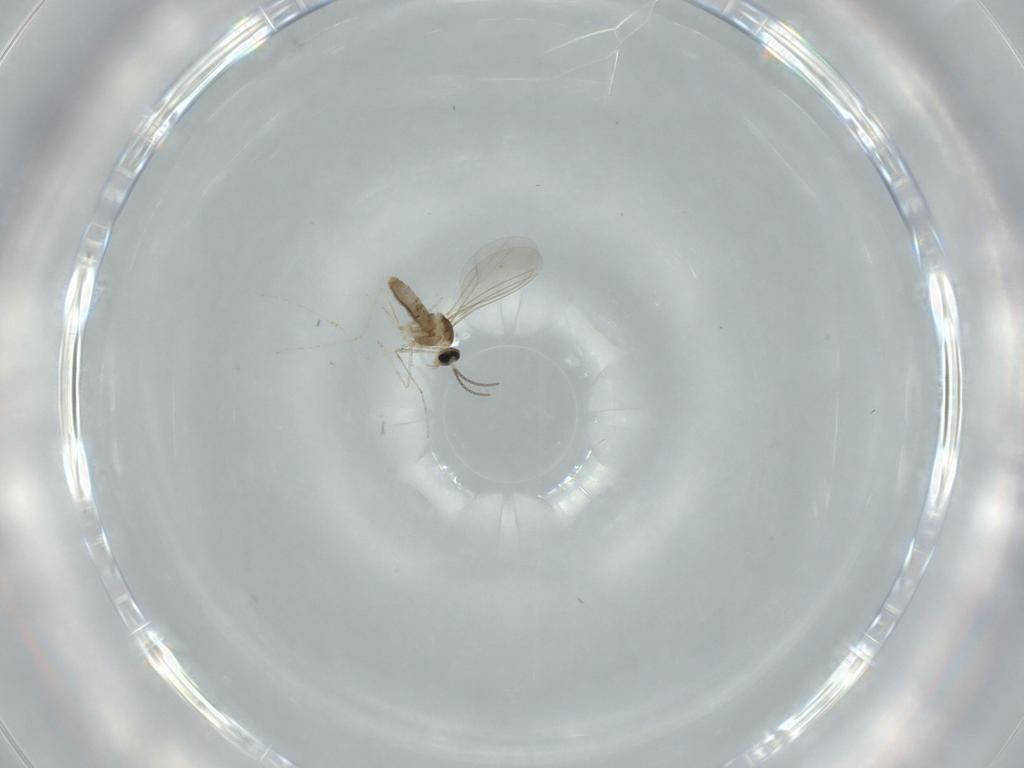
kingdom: Animalia
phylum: Arthropoda
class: Insecta
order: Diptera
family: Cecidomyiidae
